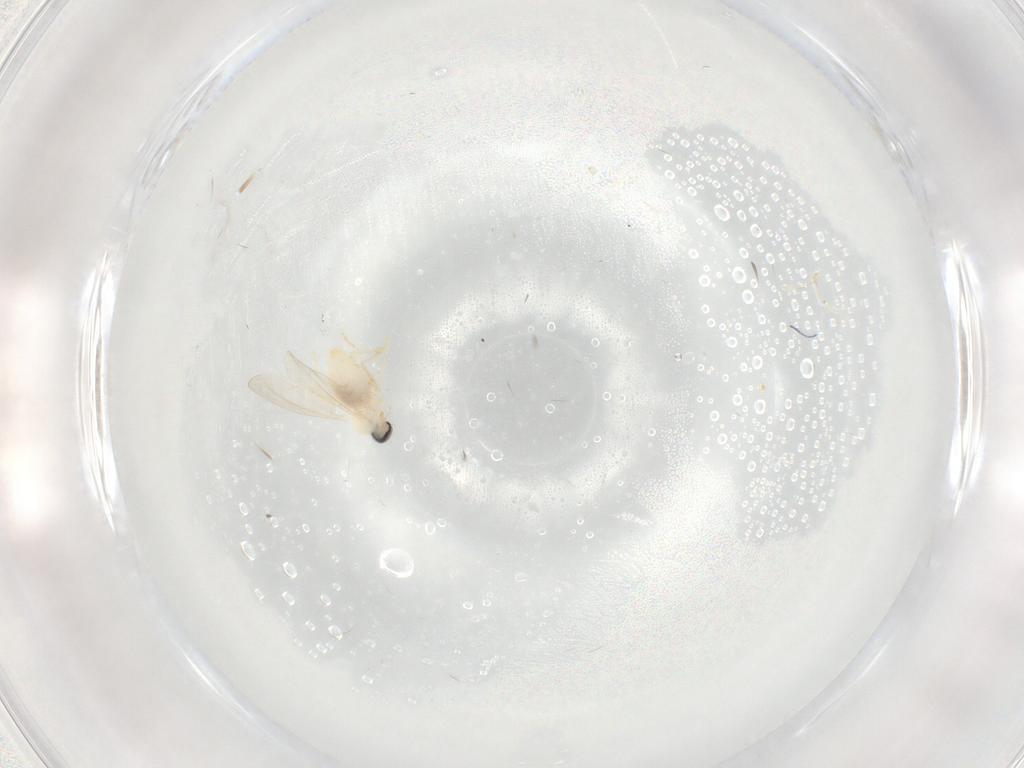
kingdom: Animalia
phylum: Arthropoda
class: Insecta
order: Diptera
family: Cecidomyiidae
